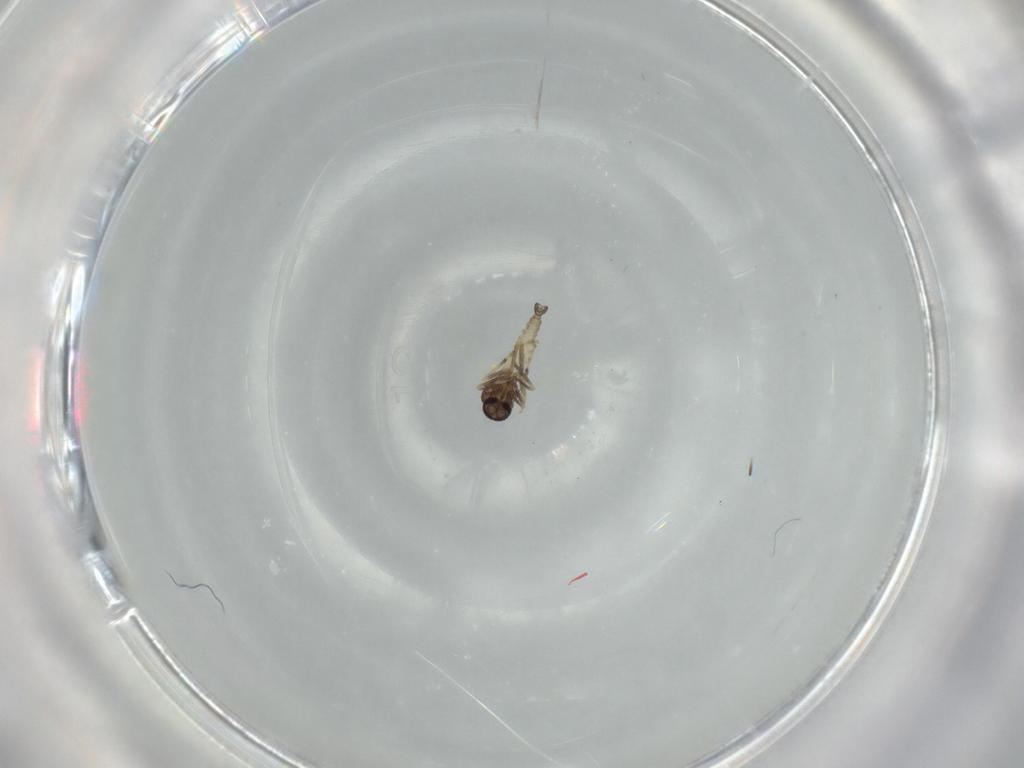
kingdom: Animalia
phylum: Arthropoda
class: Insecta
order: Diptera
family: Ceratopogonidae
